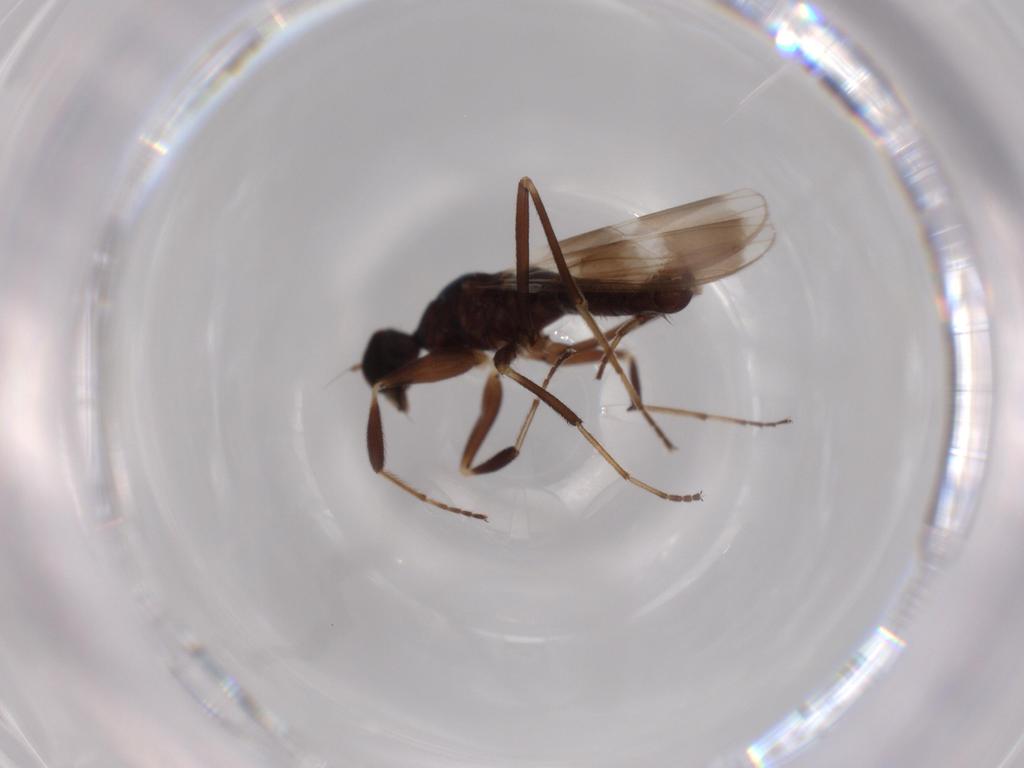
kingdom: Animalia
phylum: Arthropoda
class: Insecta
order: Diptera
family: Hybotidae
